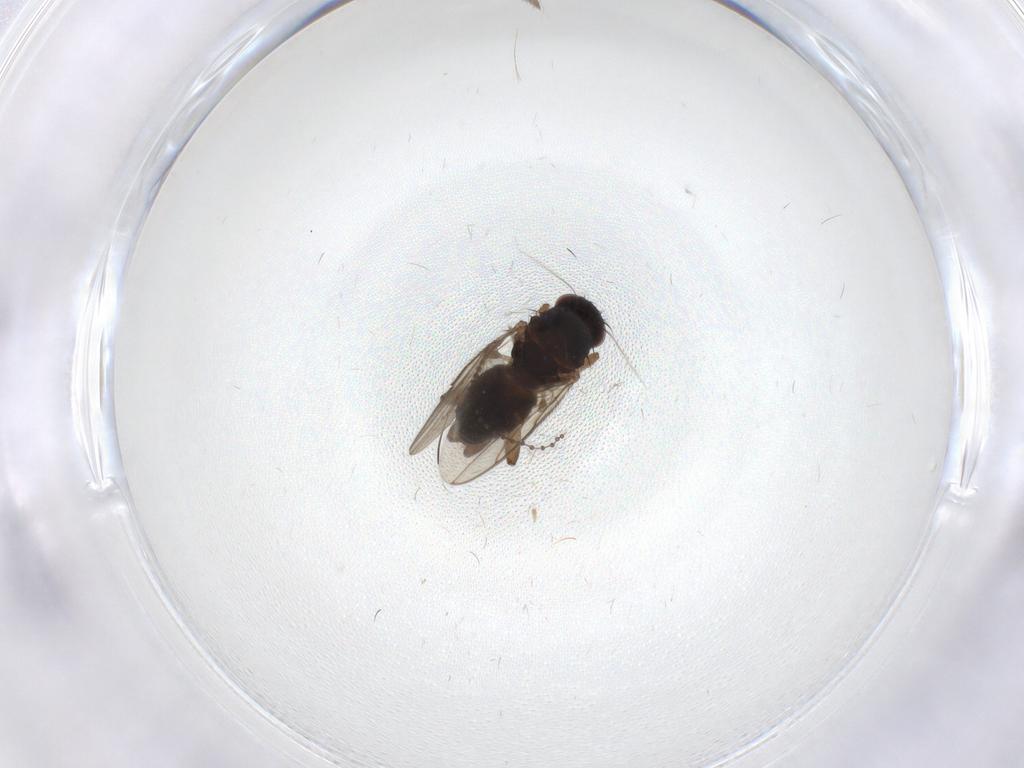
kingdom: Animalia
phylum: Arthropoda
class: Insecta
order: Diptera
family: Sphaeroceridae
